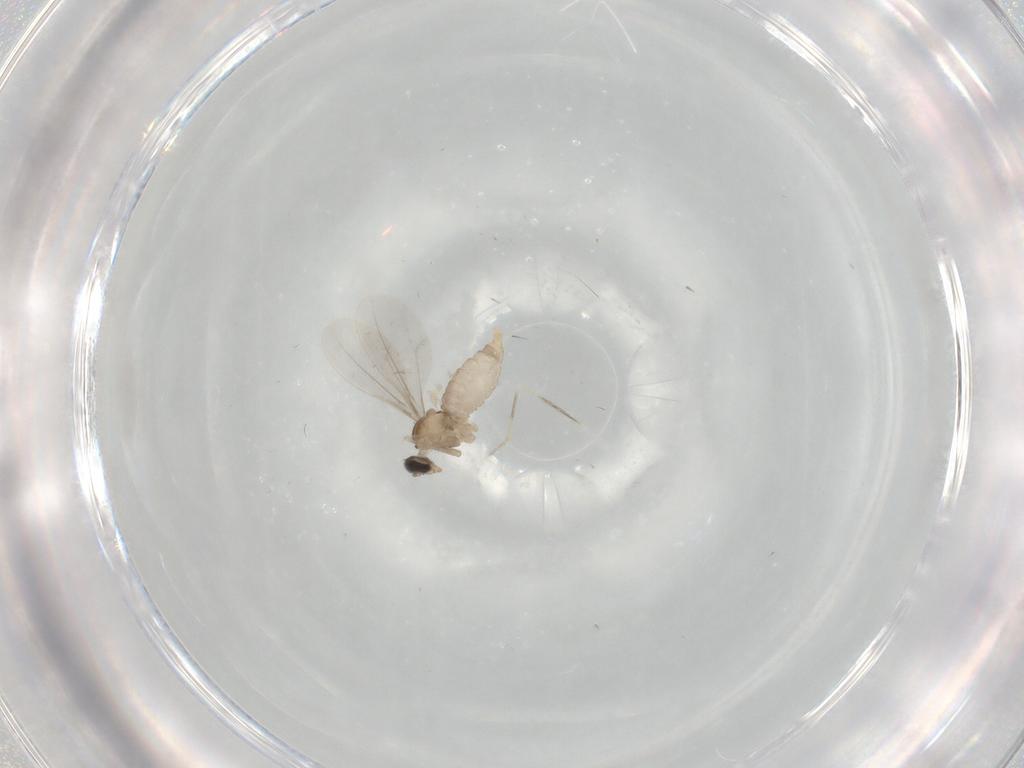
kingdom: Animalia
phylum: Arthropoda
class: Insecta
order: Diptera
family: Cecidomyiidae
